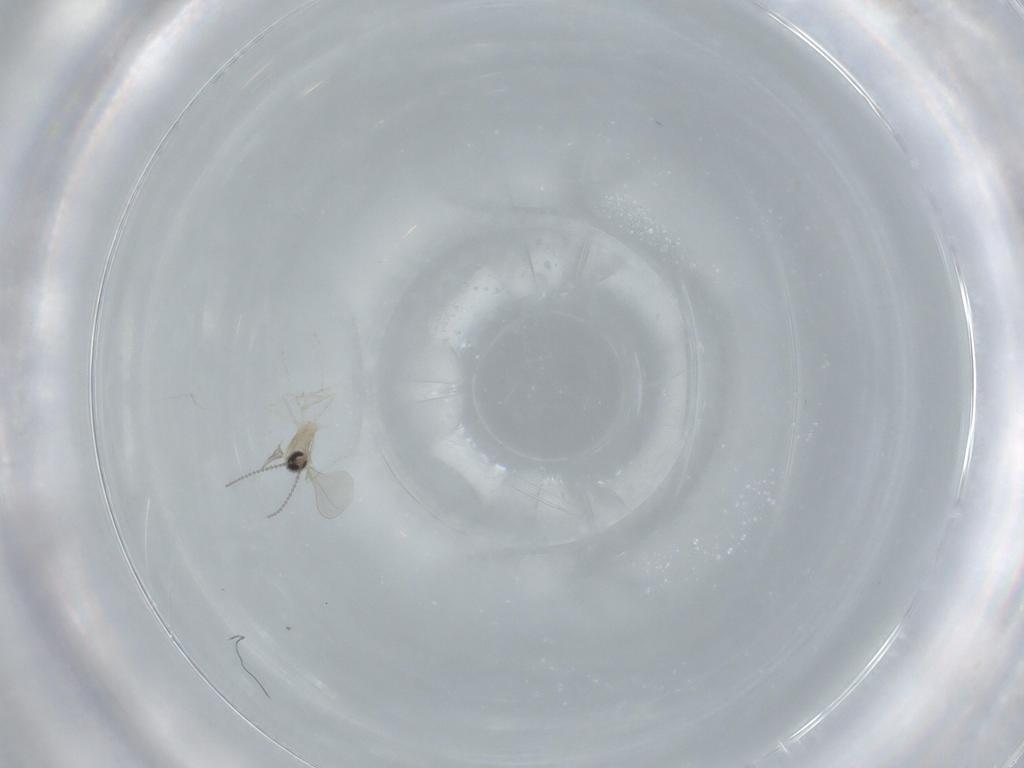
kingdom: Animalia
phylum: Arthropoda
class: Insecta
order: Diptera
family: Cecidomyiidae
